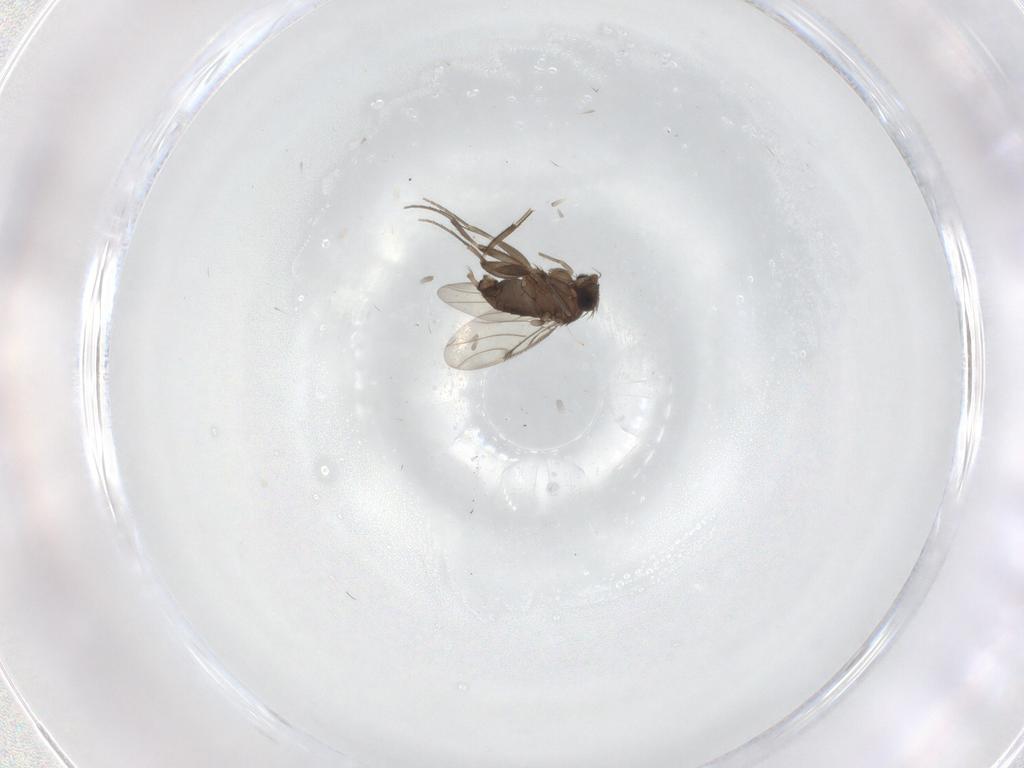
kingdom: Animalia
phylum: Arthropoda
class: Insecta
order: Diptera
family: Phoridae
